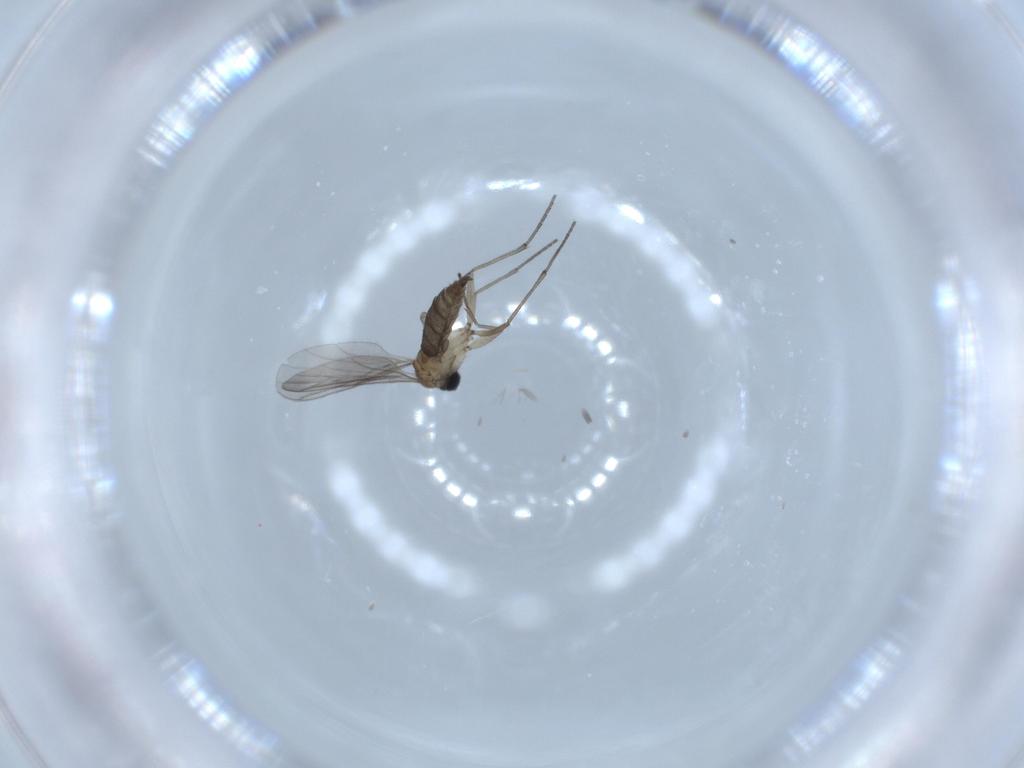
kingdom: Animalia
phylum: Arthropoda
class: Insecta
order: Diptera
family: Sciaridae
